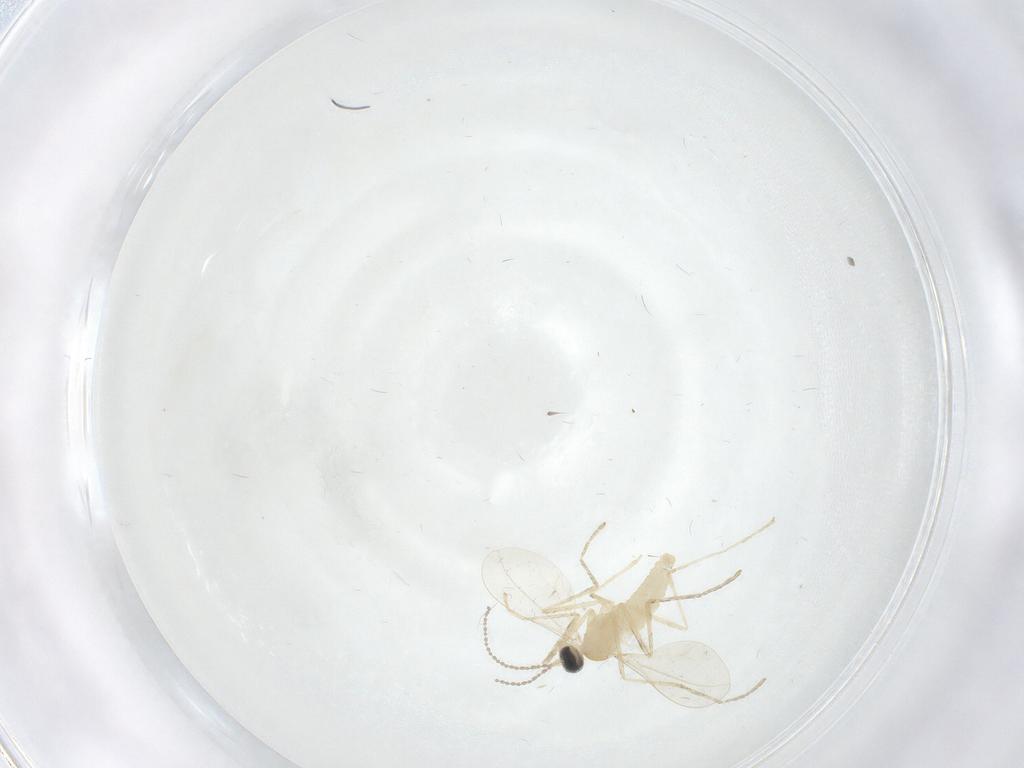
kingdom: Animalia
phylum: Arthropoda
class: Insecta
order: Diptera
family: Cecidomyiidae
